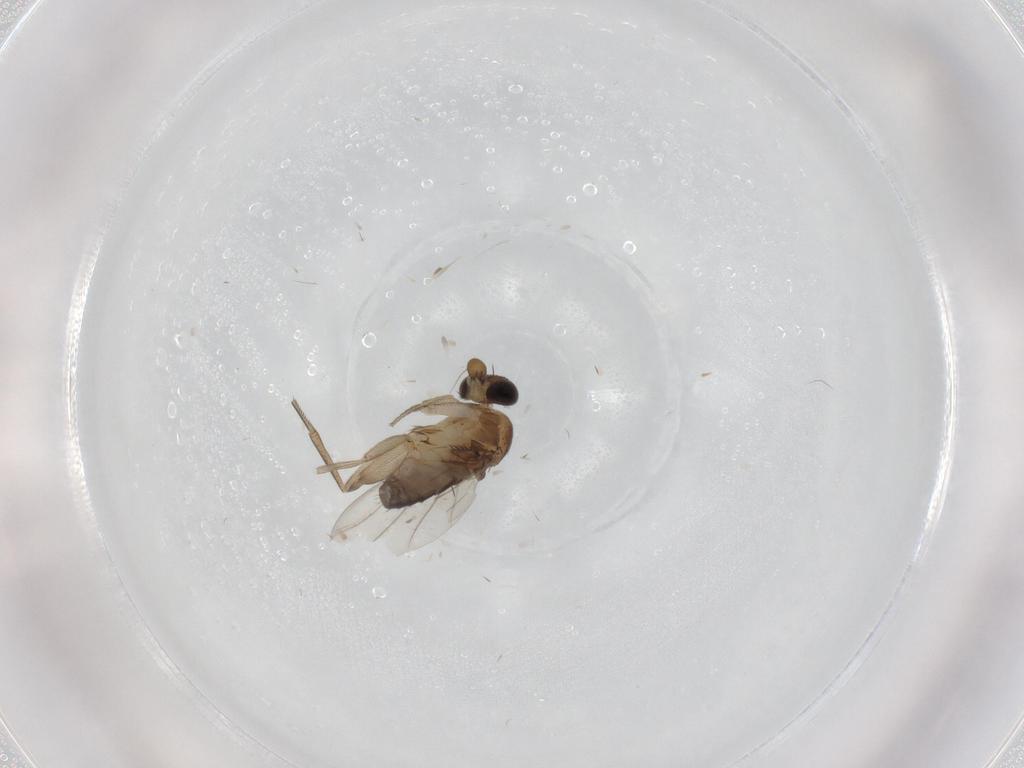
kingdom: Animalia
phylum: Arthropoda
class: Insecta
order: Diptera
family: Phoridae
